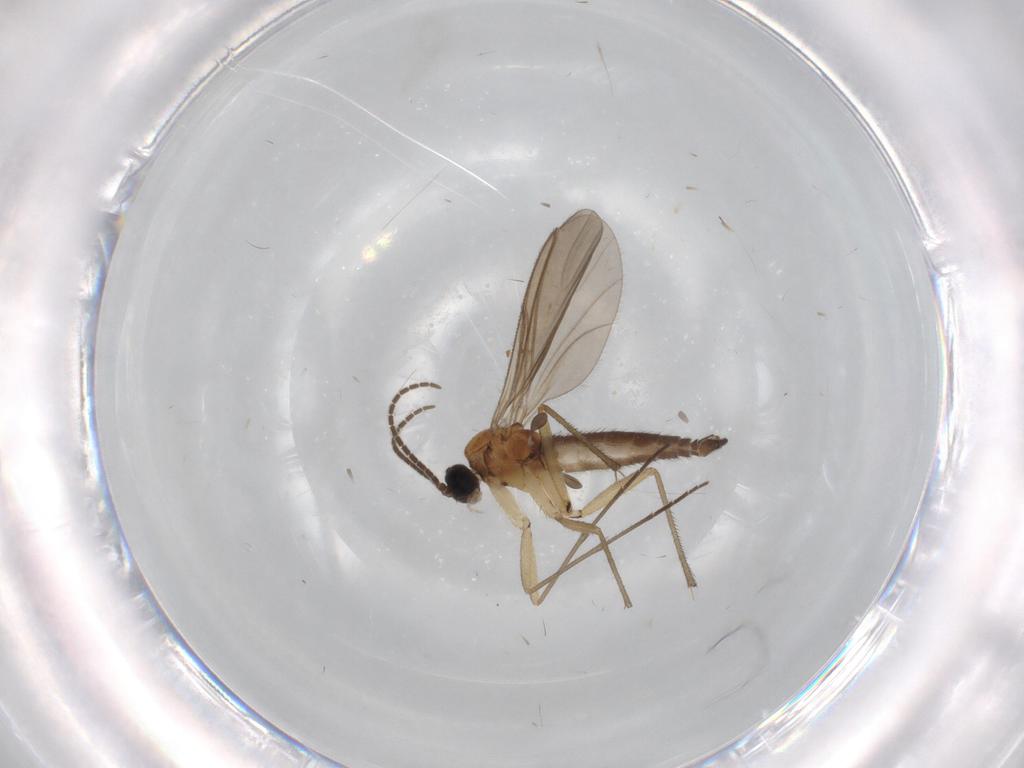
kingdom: Animalia
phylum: Arthropoda
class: Insecta
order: Diptera
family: Sciaridae
